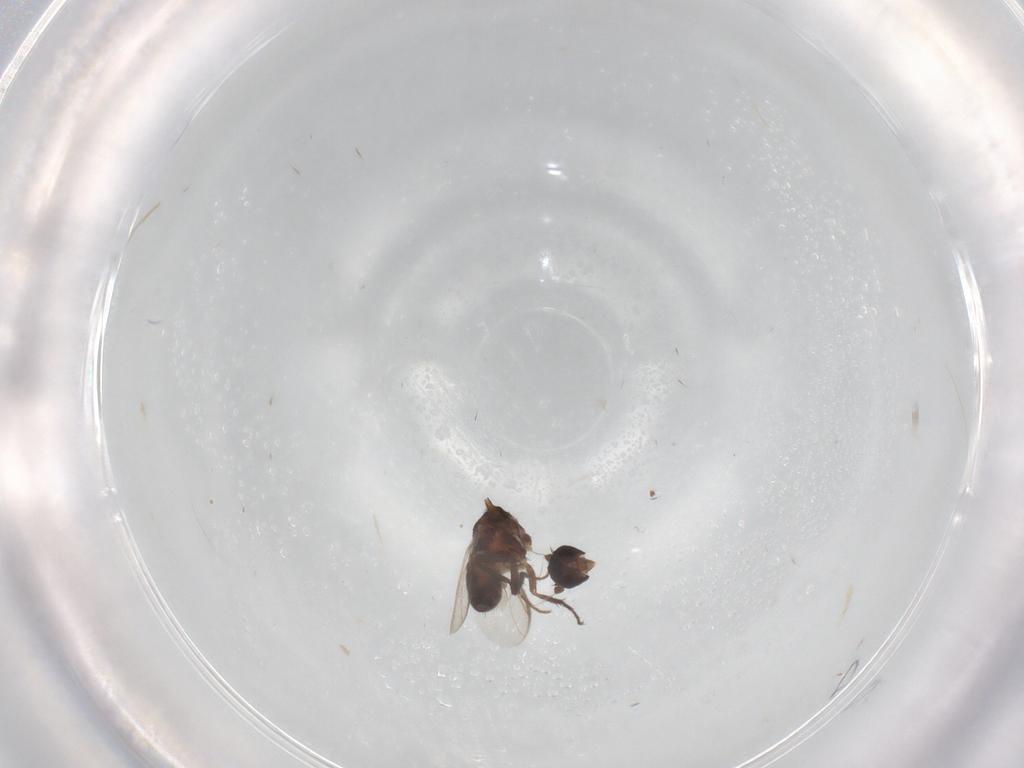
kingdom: Animalia
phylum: Arthropoda
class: Insecta
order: Diptera
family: Sphaeroceridae
